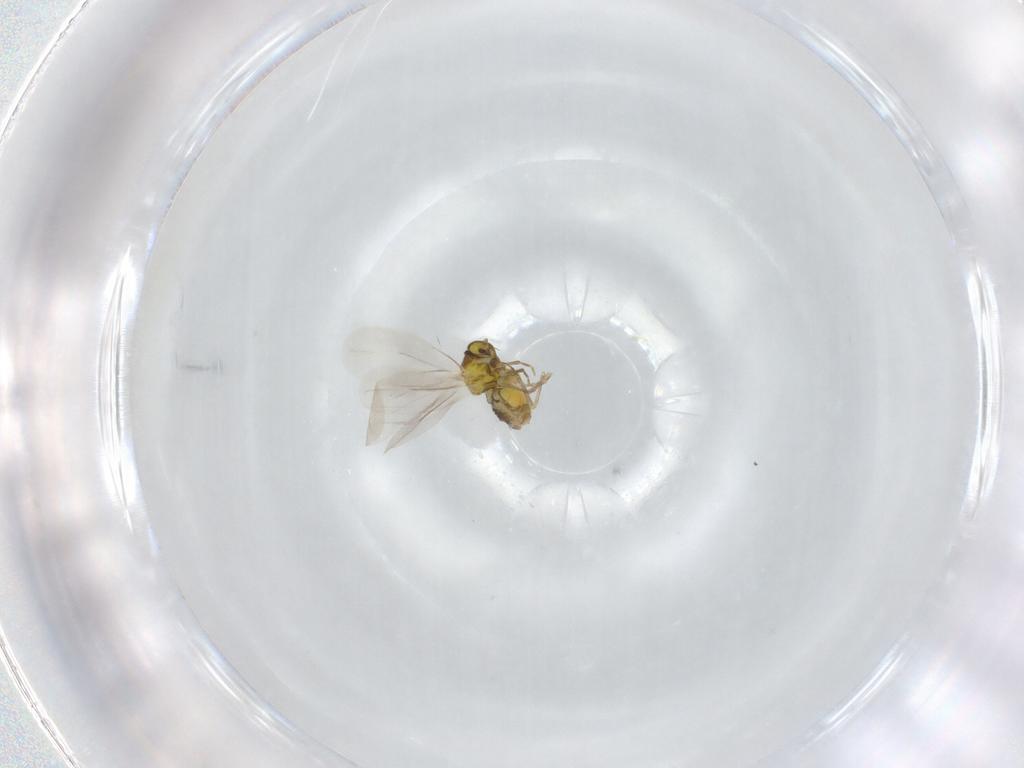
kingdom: Animalia
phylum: Arthropoda
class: Insecta
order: Hemiptera
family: Aleyrodidae
